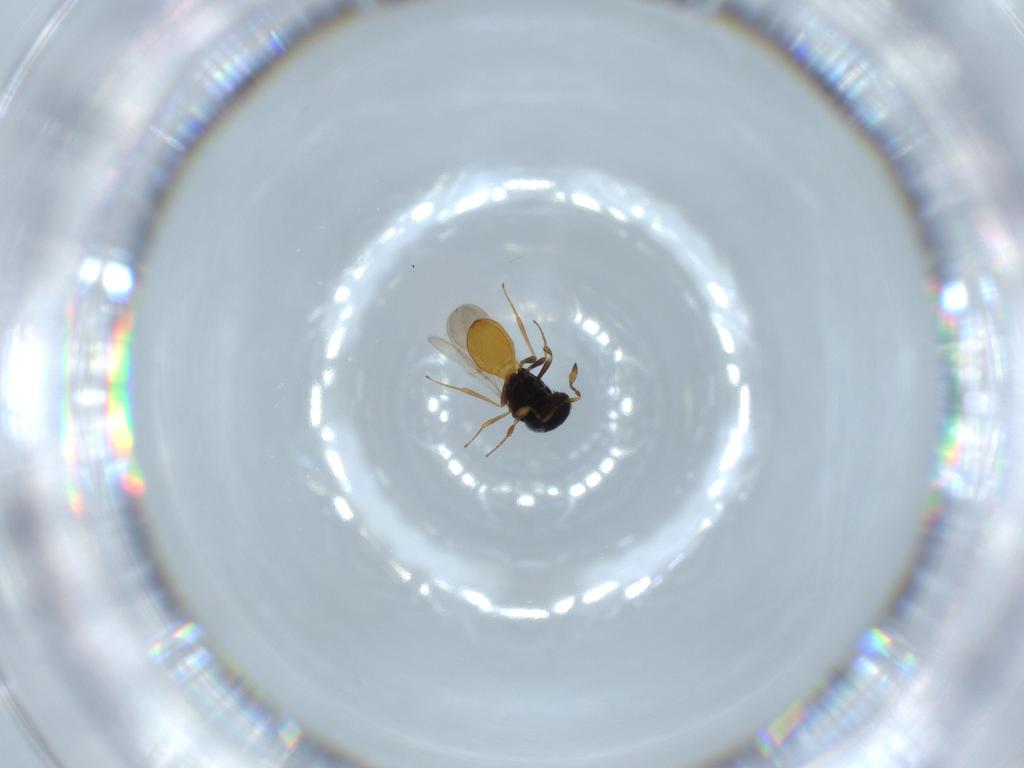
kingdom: Animalia
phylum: Arthropoda
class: Insecta
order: Hymenoptera
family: Scelionidae
